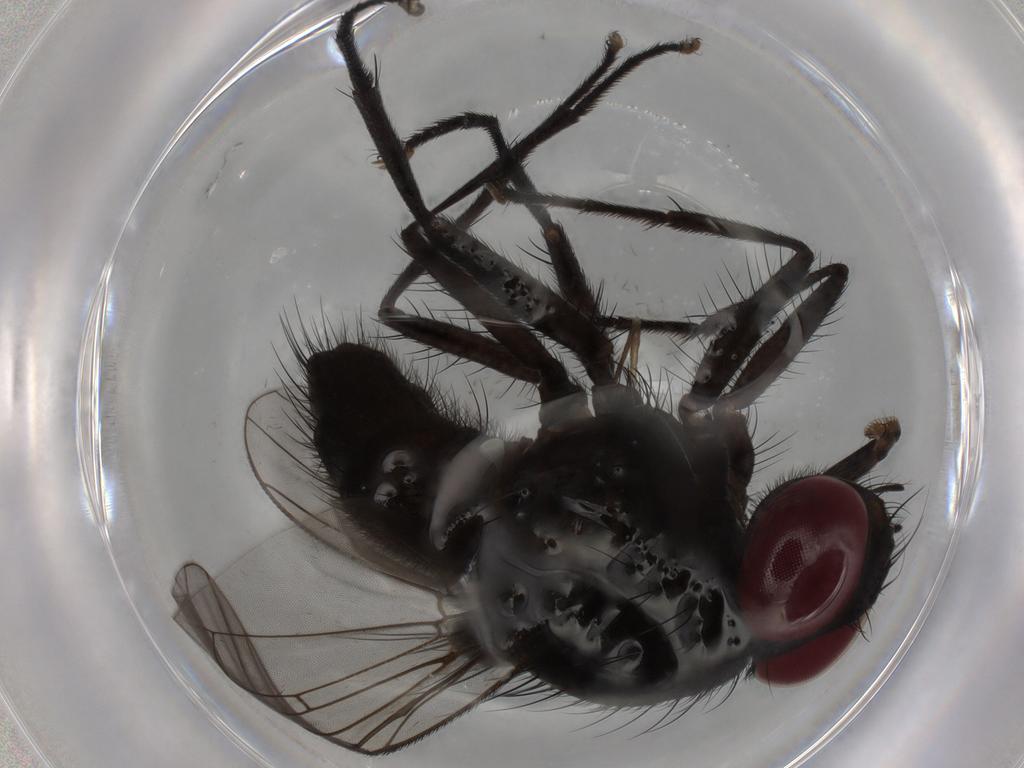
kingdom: Animalia
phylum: Arthropoda
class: Insecta
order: Diptera
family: Muscidae
